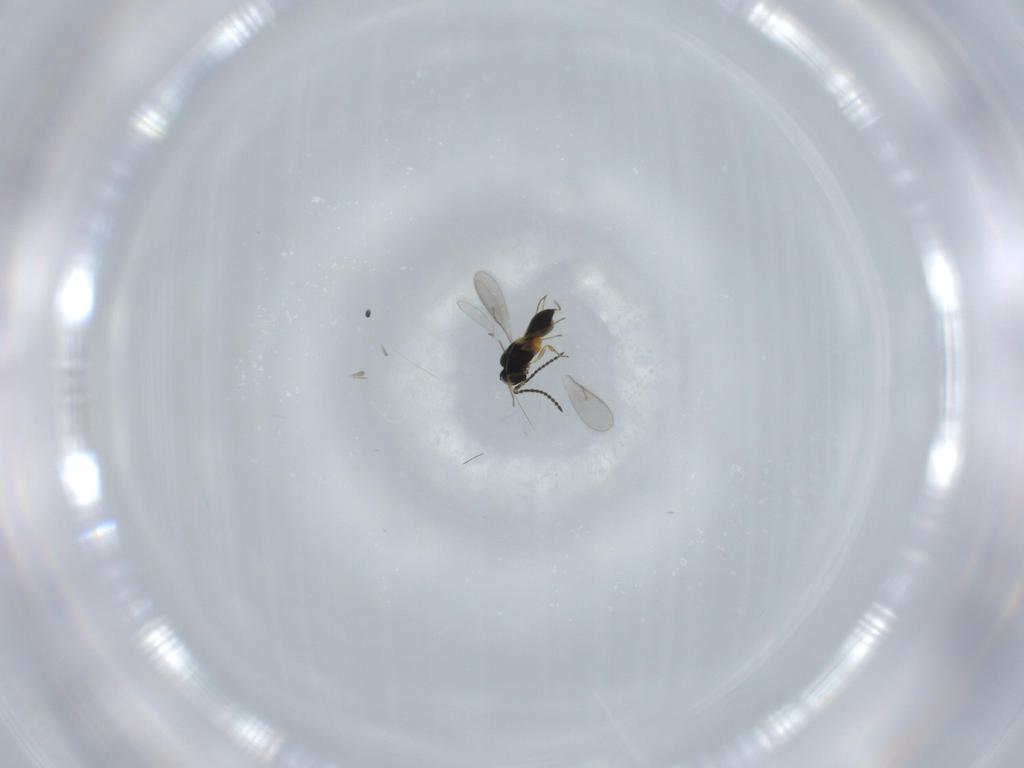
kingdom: Animalia
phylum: Arthropoda
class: Insecta
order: Hymenoptera
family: Scelionidae
